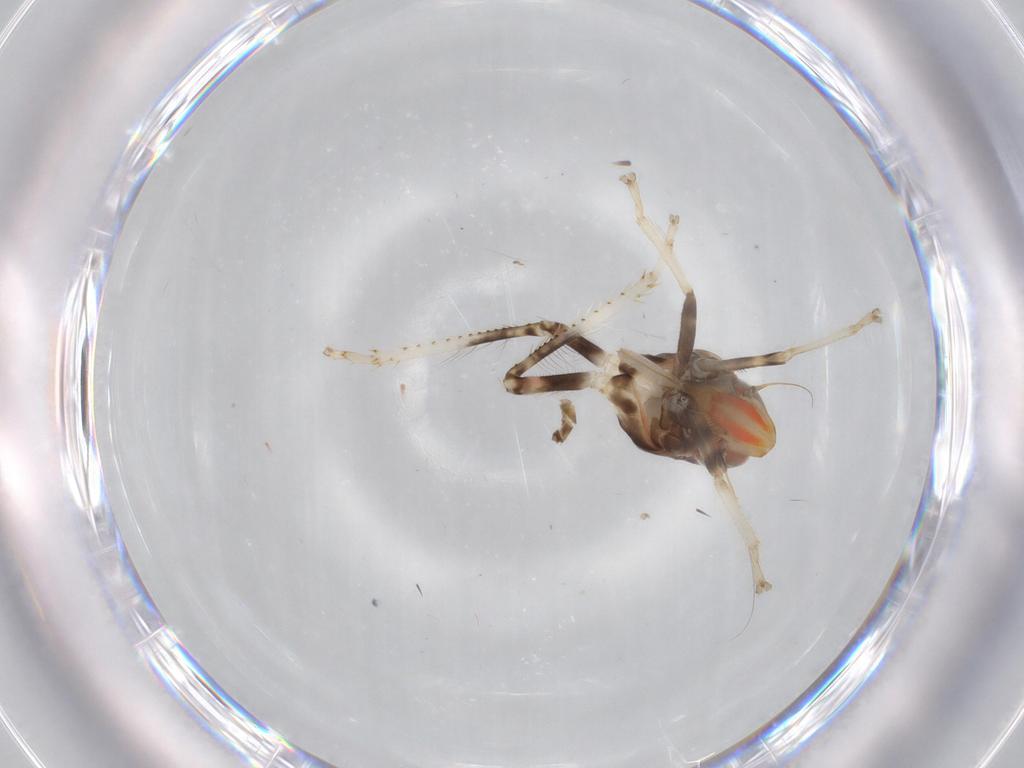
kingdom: Animalia
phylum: Arthropoda
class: Insecta
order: Hemiptera
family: Cicadellidae
